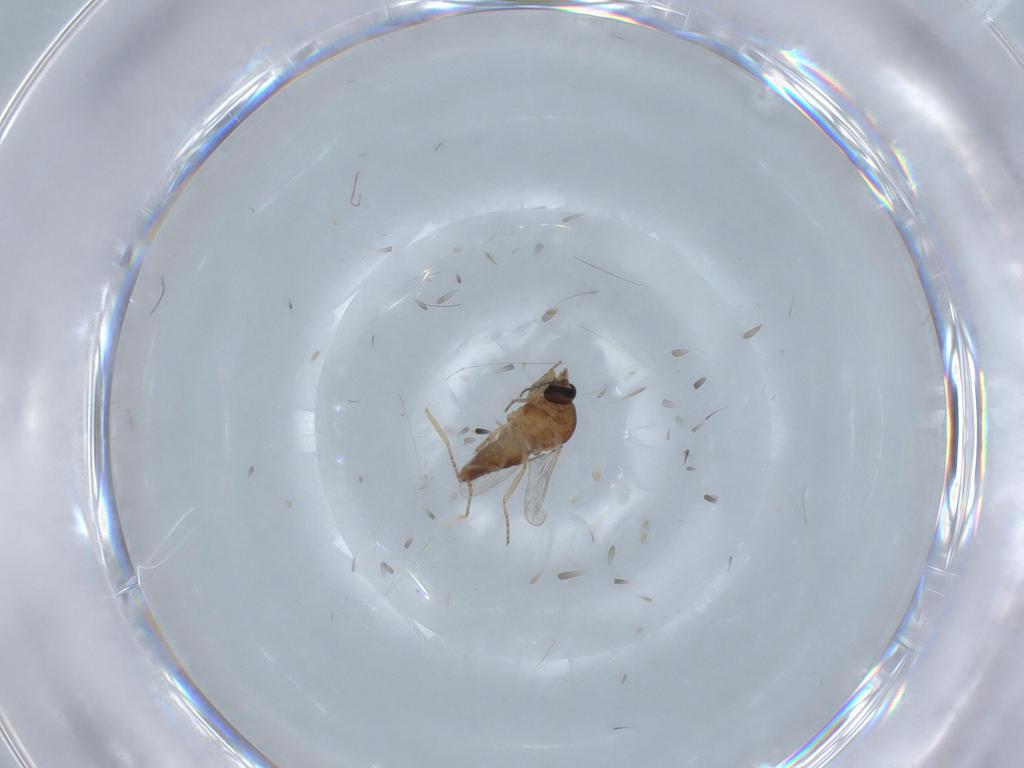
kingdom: Animalia
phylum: Arthropoda
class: Insecta
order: Diptera
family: Ceratopogonidae
